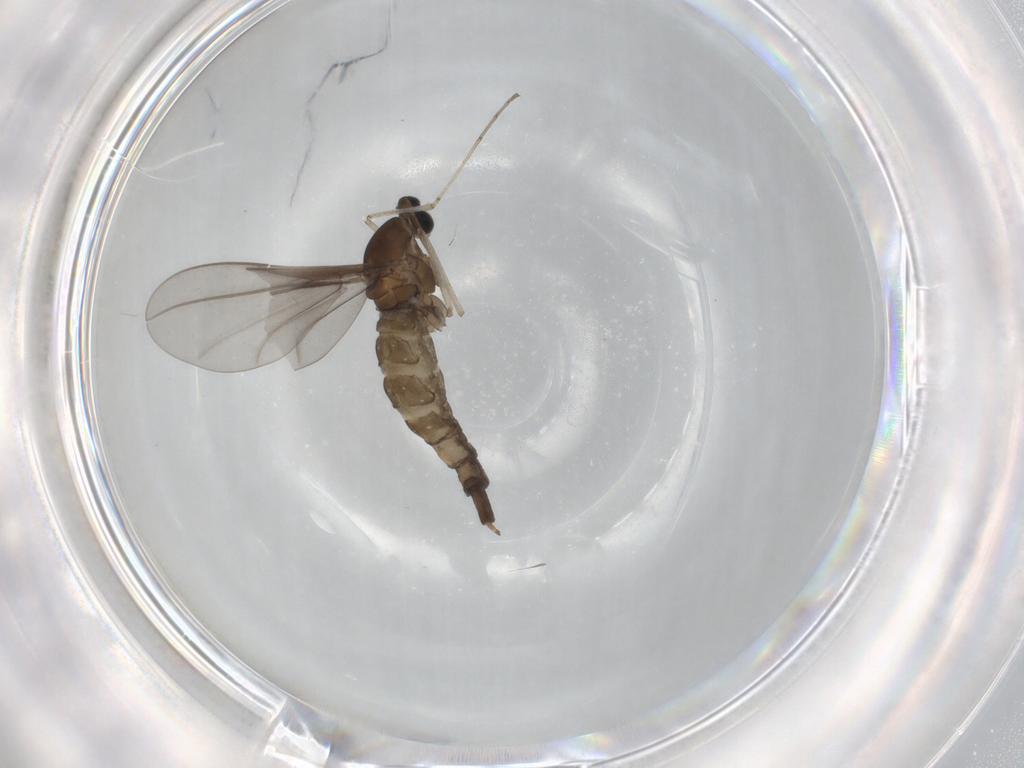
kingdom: Animalia
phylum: Arthropoda
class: Insecta
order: Diptera
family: Cecidomyiidae
